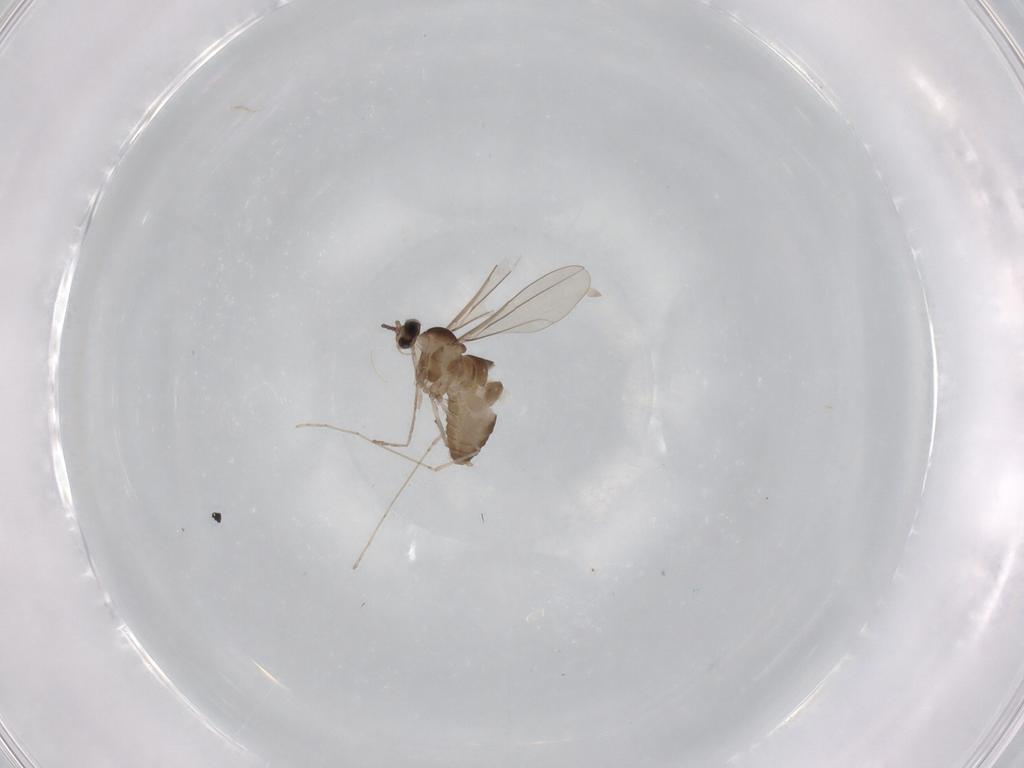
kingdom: Animalia
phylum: Arthropoda
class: Insecta
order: Diptera
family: Cecidomyiidae
